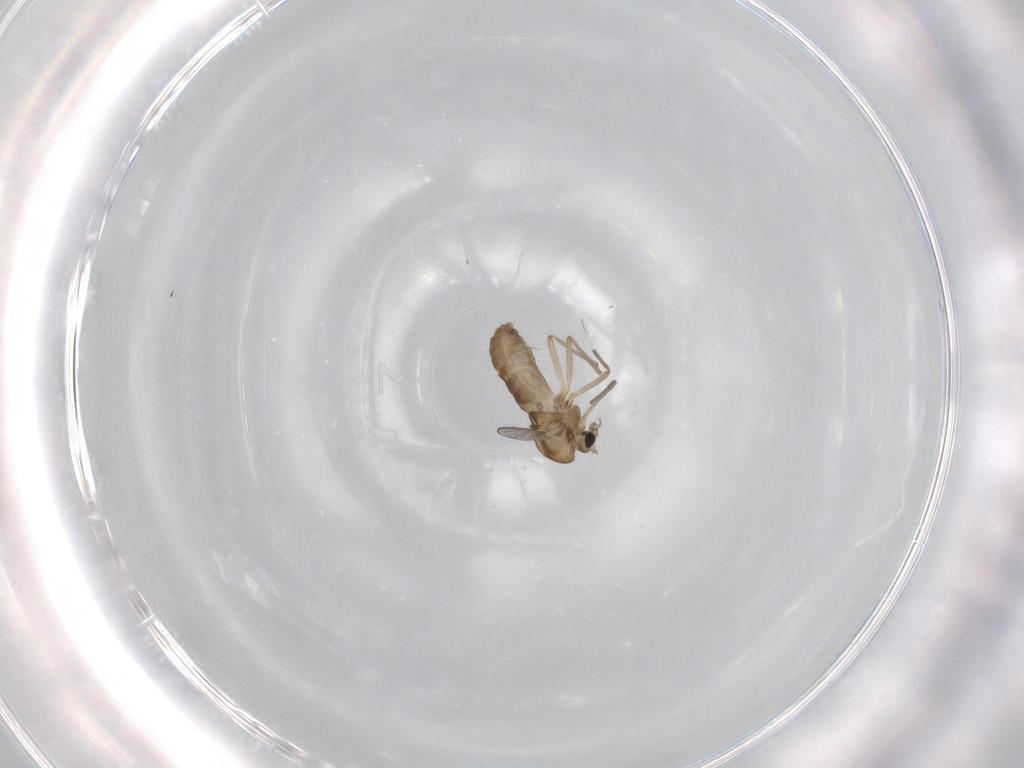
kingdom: Animalia
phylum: Arthropoda
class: Insecta
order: Diptera
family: Chironomidae
